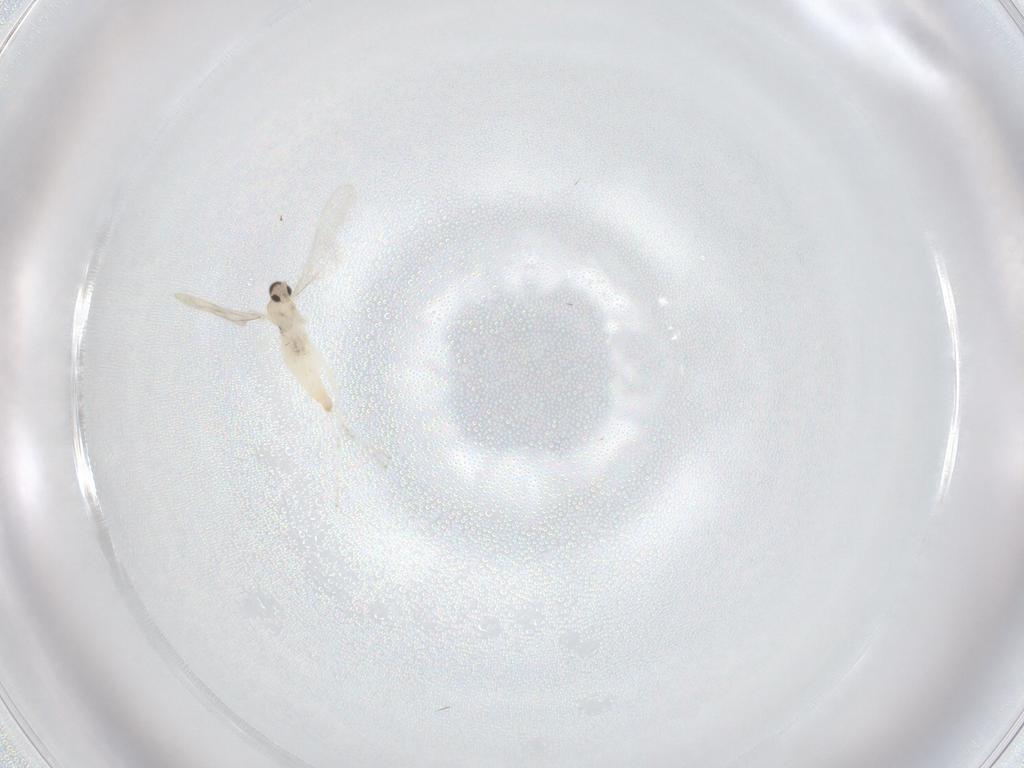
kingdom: Animalia
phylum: Arthropoda
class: Insecta
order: Diptera
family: Cecidomyiidae
